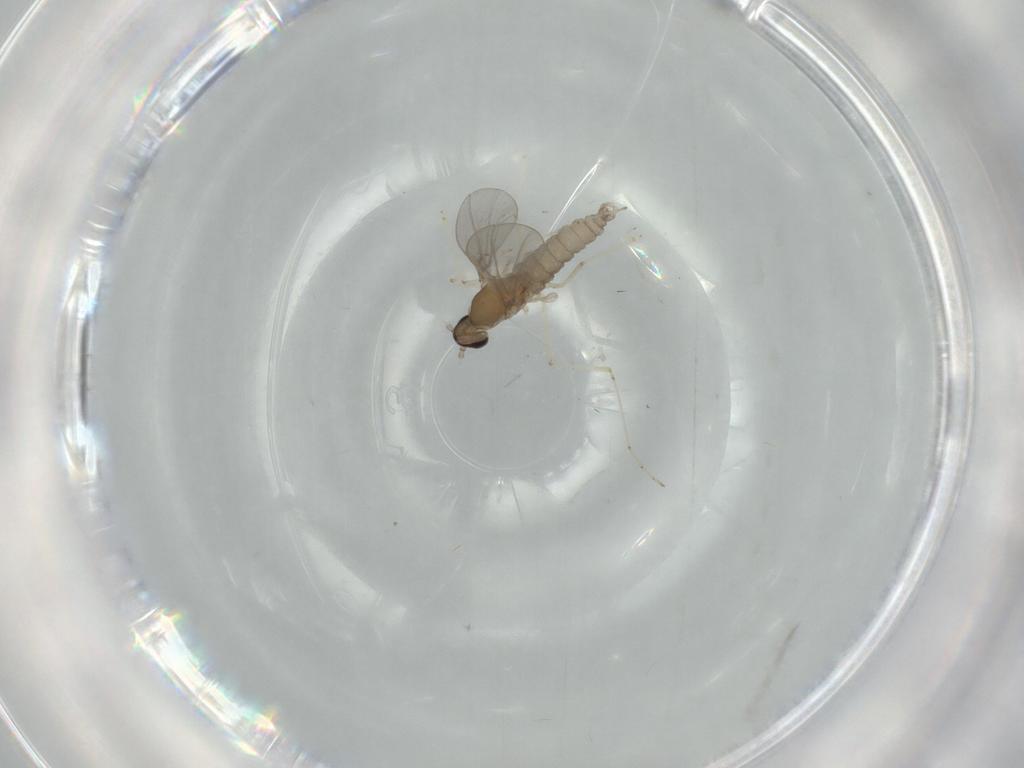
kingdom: Animalia
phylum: Arthropoda
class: Insecta
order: Diptera
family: Cecidomyiidae
